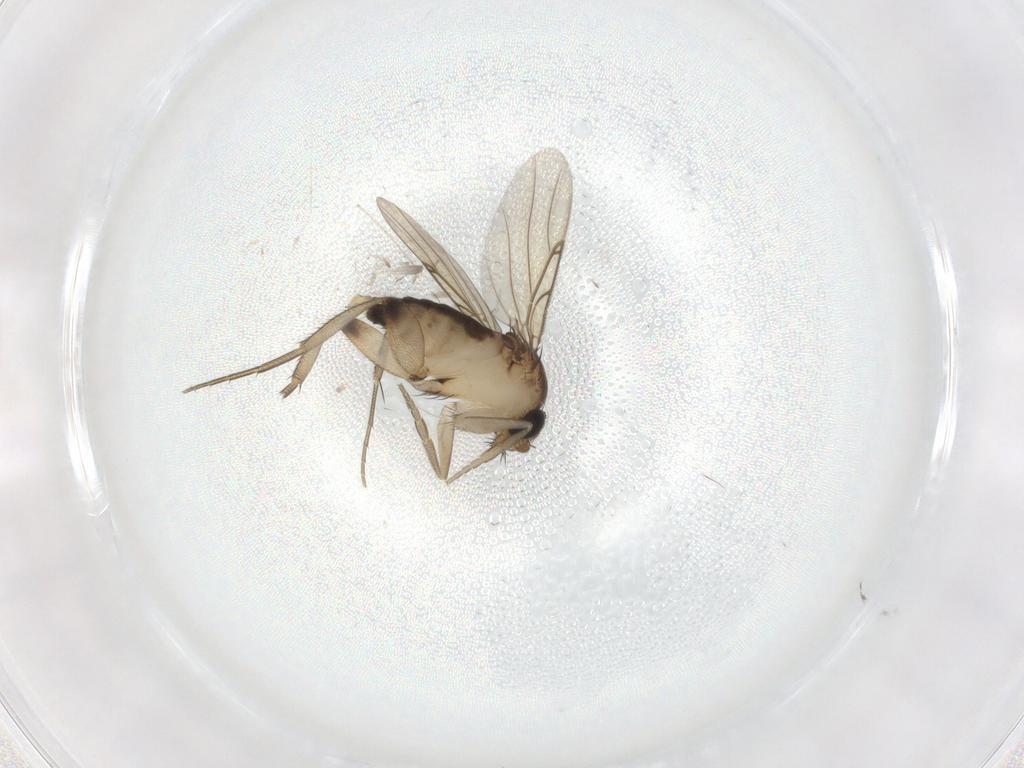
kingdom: Animalia
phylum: Arthropoda
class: Insecta
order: Diptera
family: Phoridae
